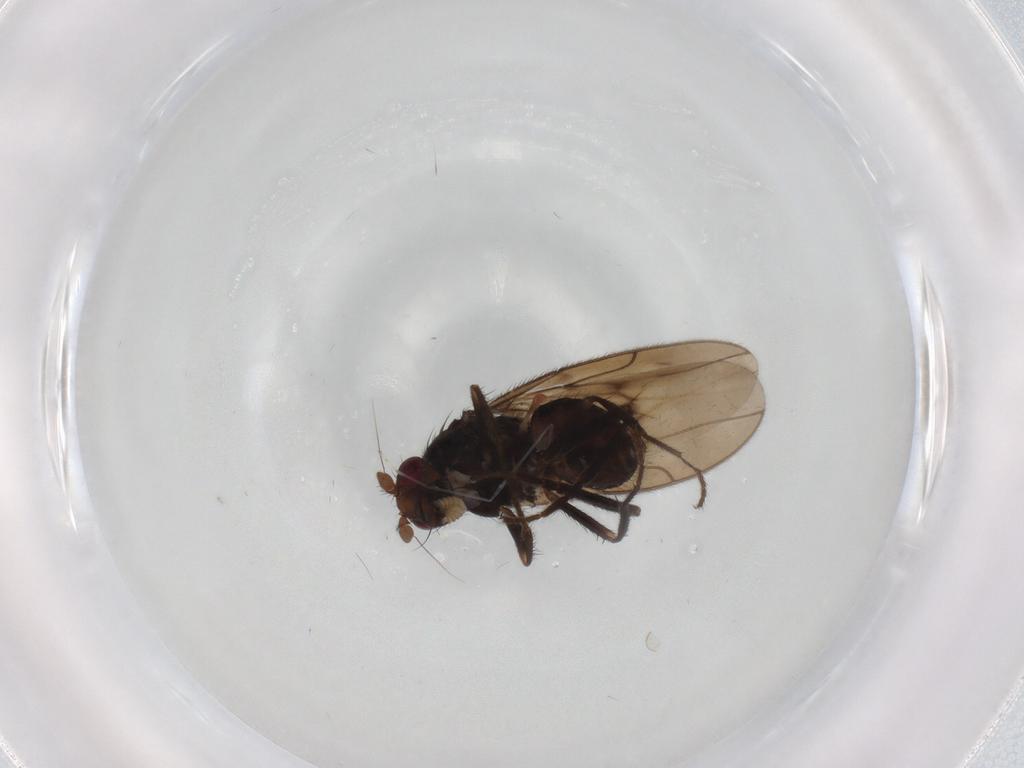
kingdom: Animalia
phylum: Arthropoda
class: Insecta
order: Diptera
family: Sphaeroceridae
